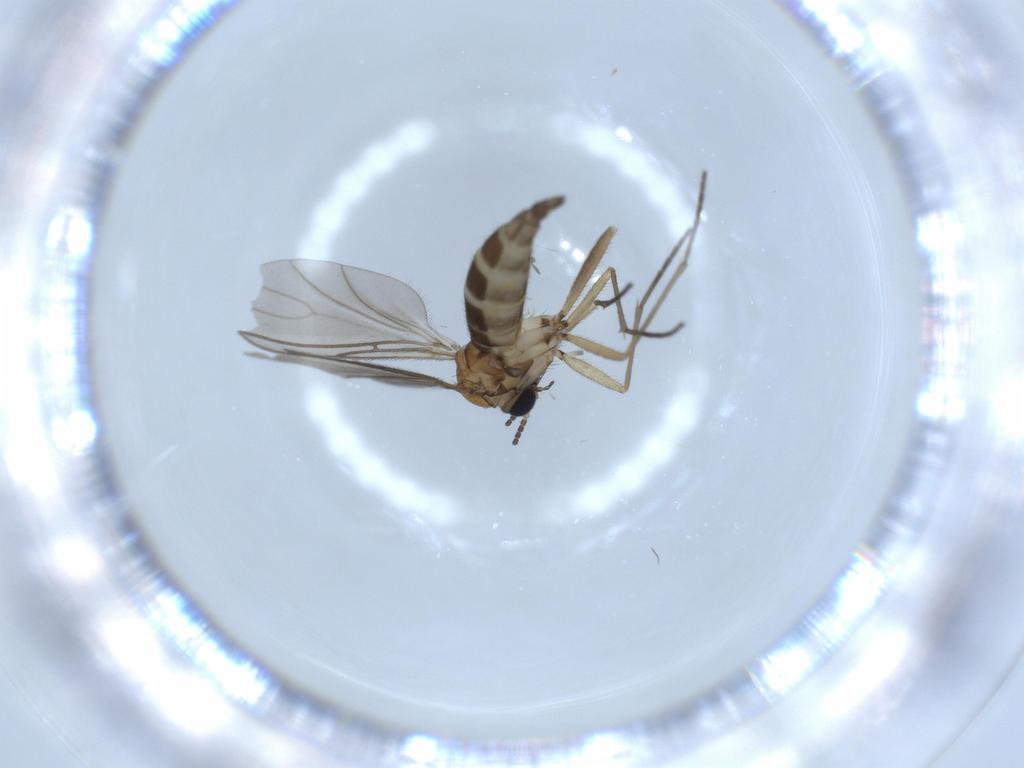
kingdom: Animalia
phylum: Arthropoda
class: Insecta
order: Diptera
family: Sciaridae
